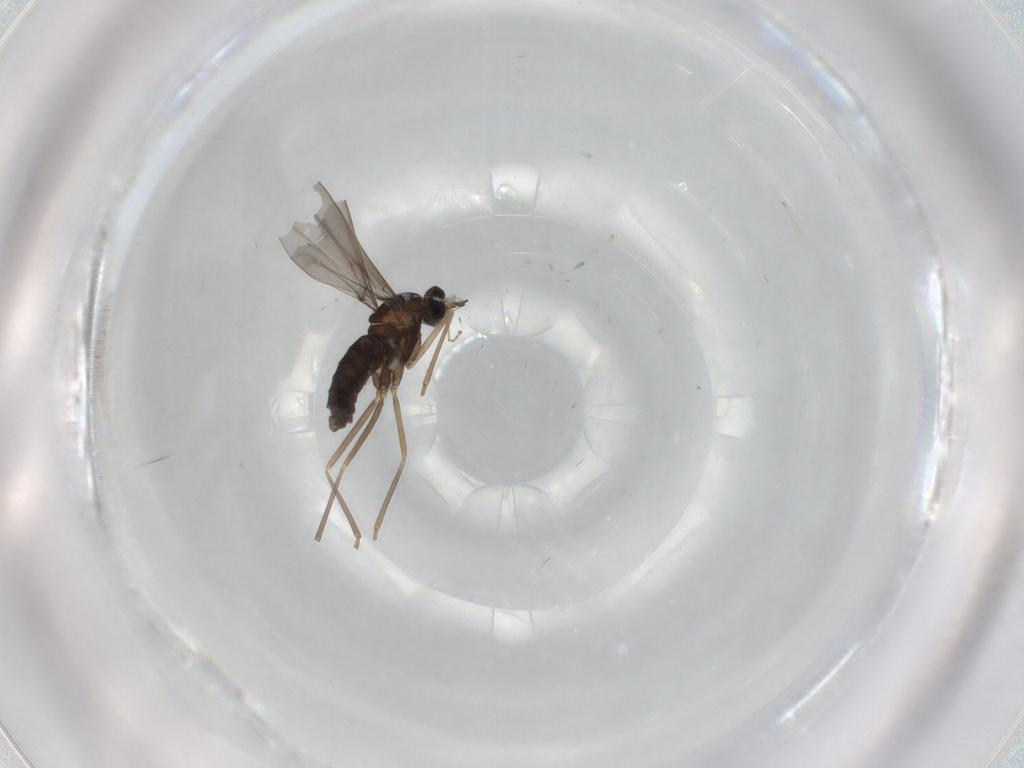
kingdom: Animalia
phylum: Arthropoda
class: Insecta
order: Diptera
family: Psychodidae
